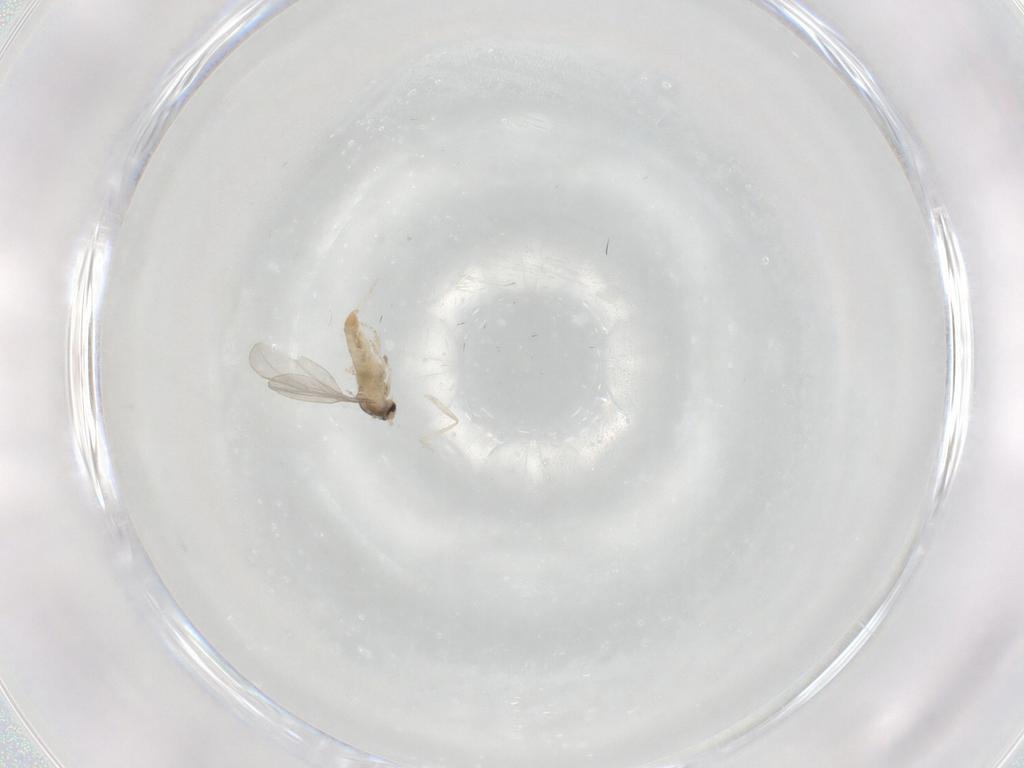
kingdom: Animalia
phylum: Arthropoda
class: Insecta
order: Diptera
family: Cecidomyiidae
